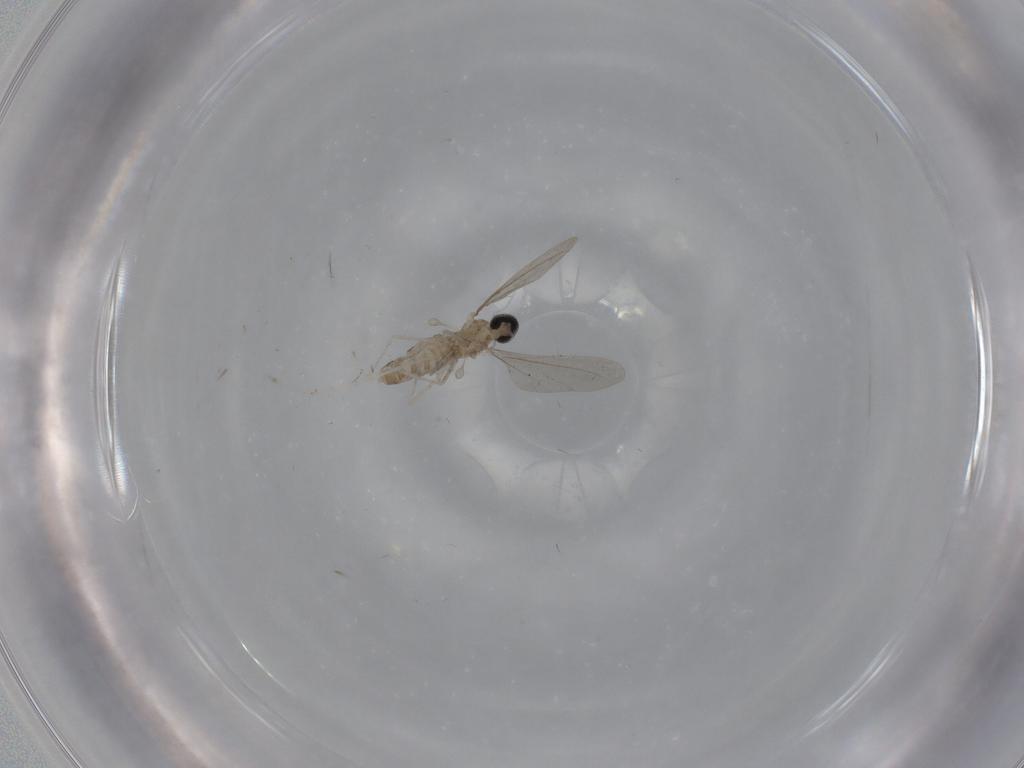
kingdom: Animalia
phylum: Arthropoda
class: Insecta
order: Diptera
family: Cecidomyiidae
